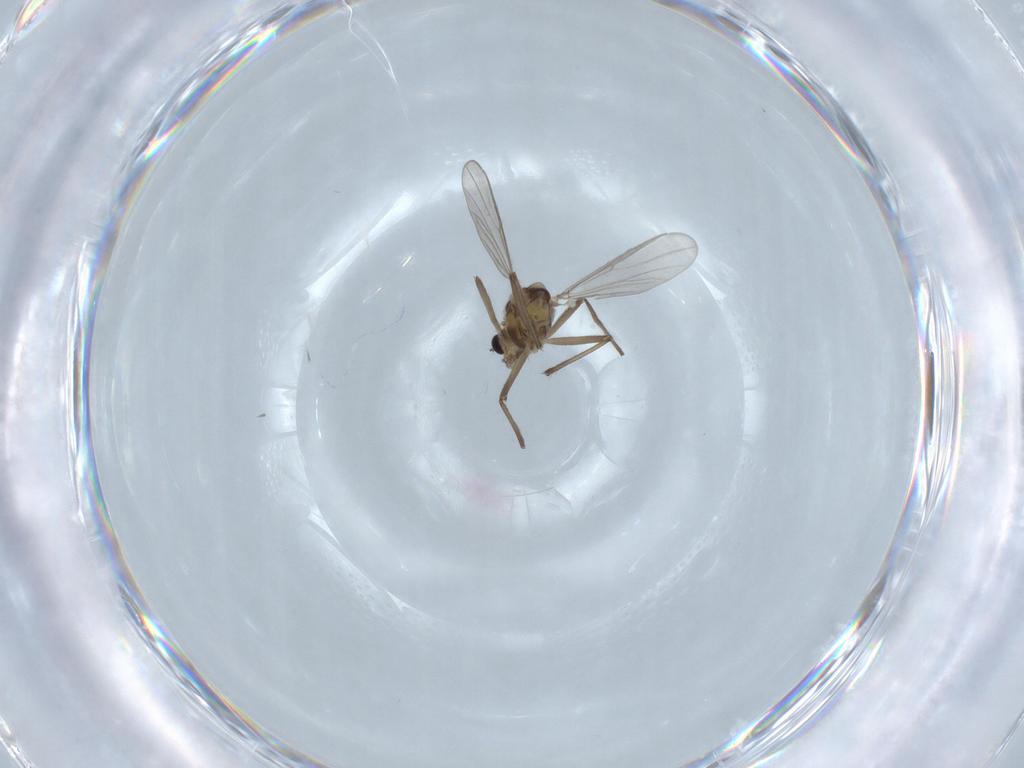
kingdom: Animalia
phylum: Arthropoda
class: Insecta
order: Diptera
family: Chironomidae
